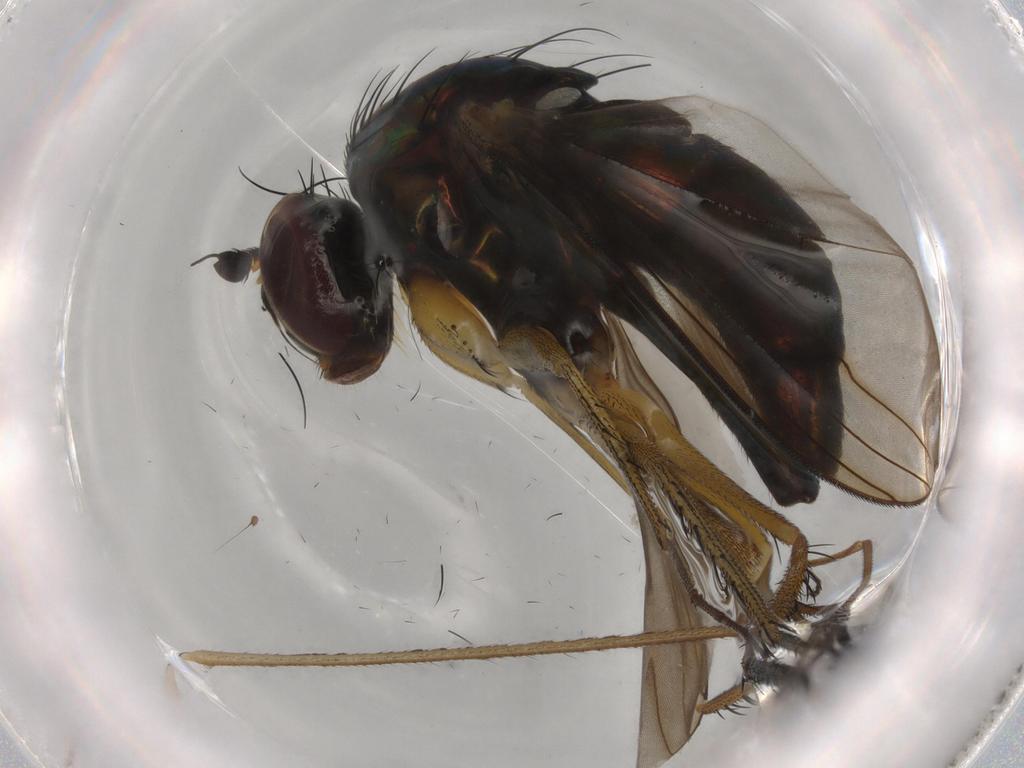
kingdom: Animalia
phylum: Arthropoda
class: Insecta
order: Diptera
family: Dolichopodidae
